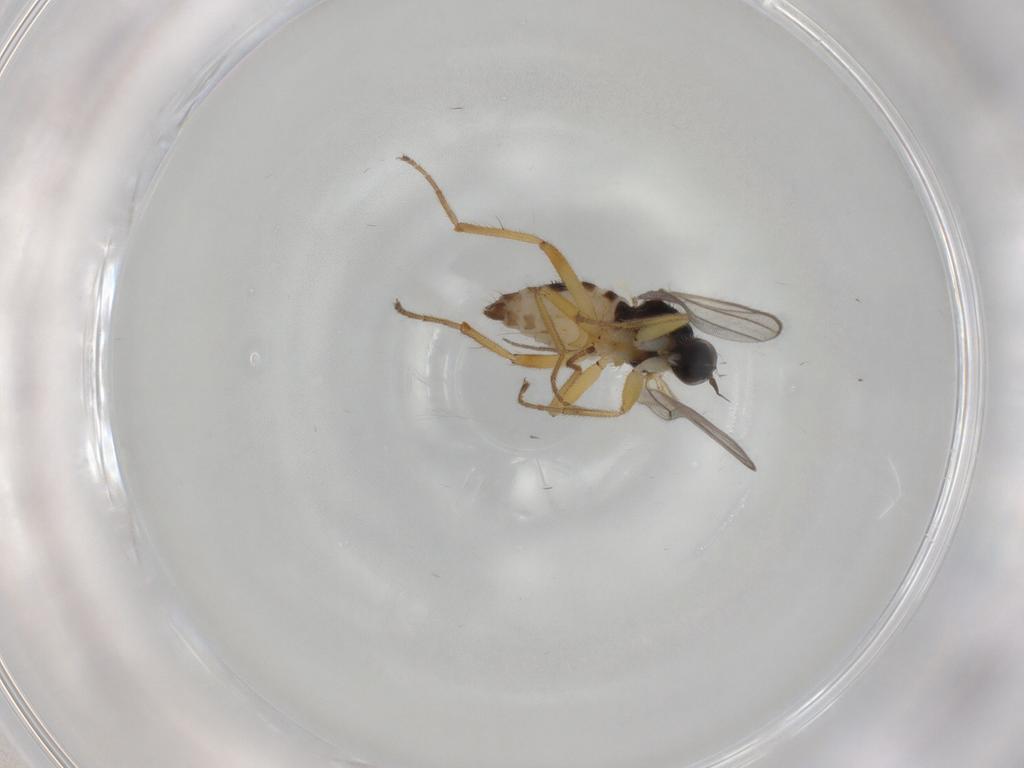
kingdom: Animalia
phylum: Arthropoda
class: Insecta
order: Diptera
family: Hybotidae
